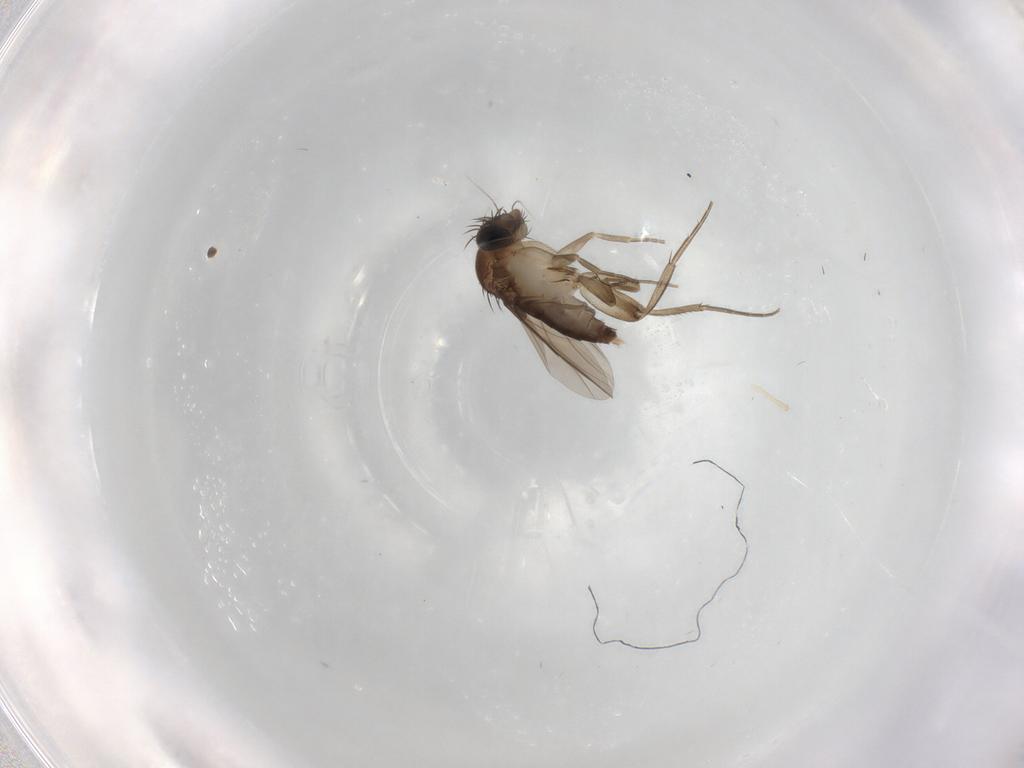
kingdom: Animalia
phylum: Arthropoda
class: Insecta
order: Diptera
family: Phoridae
